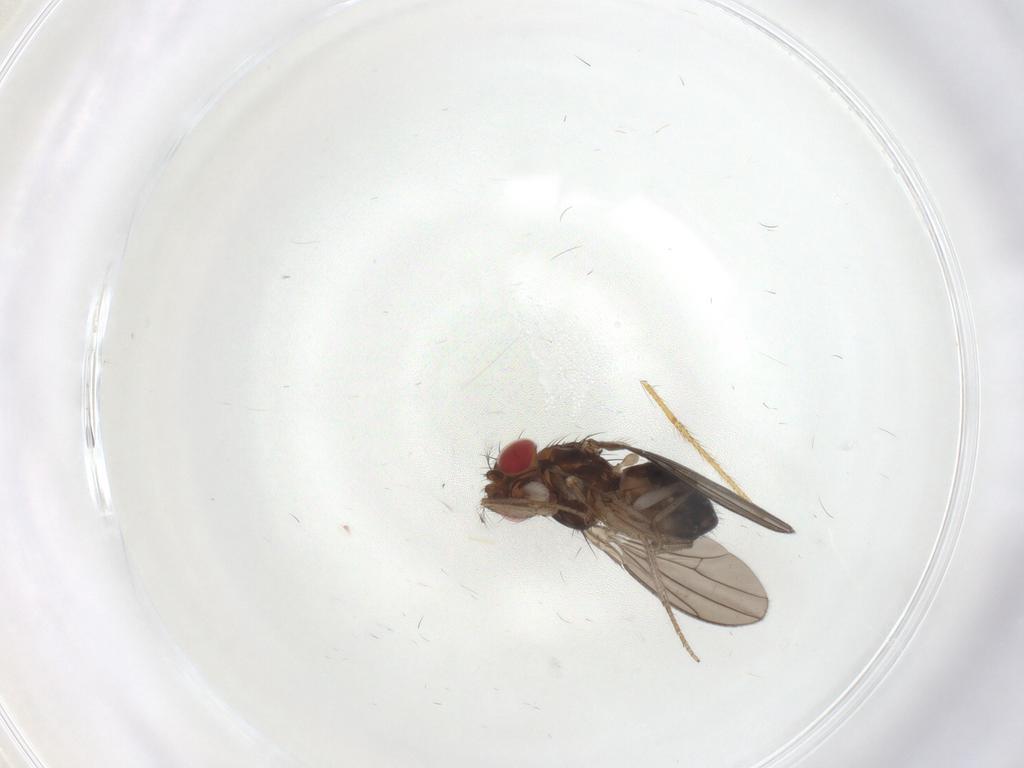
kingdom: Animalia
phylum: Arthropoda
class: Insecta
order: Diptera
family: Drosophilidae
